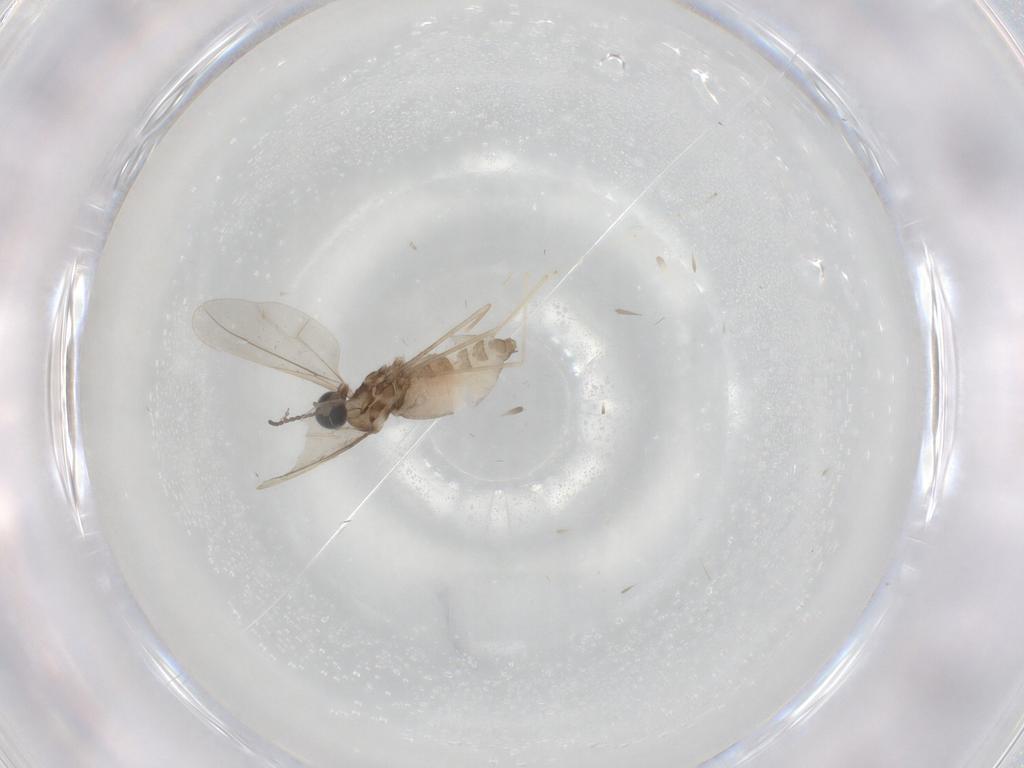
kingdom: Animalia
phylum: Arthropoda
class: Insecta
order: Diptera
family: Cecidomyiidae
